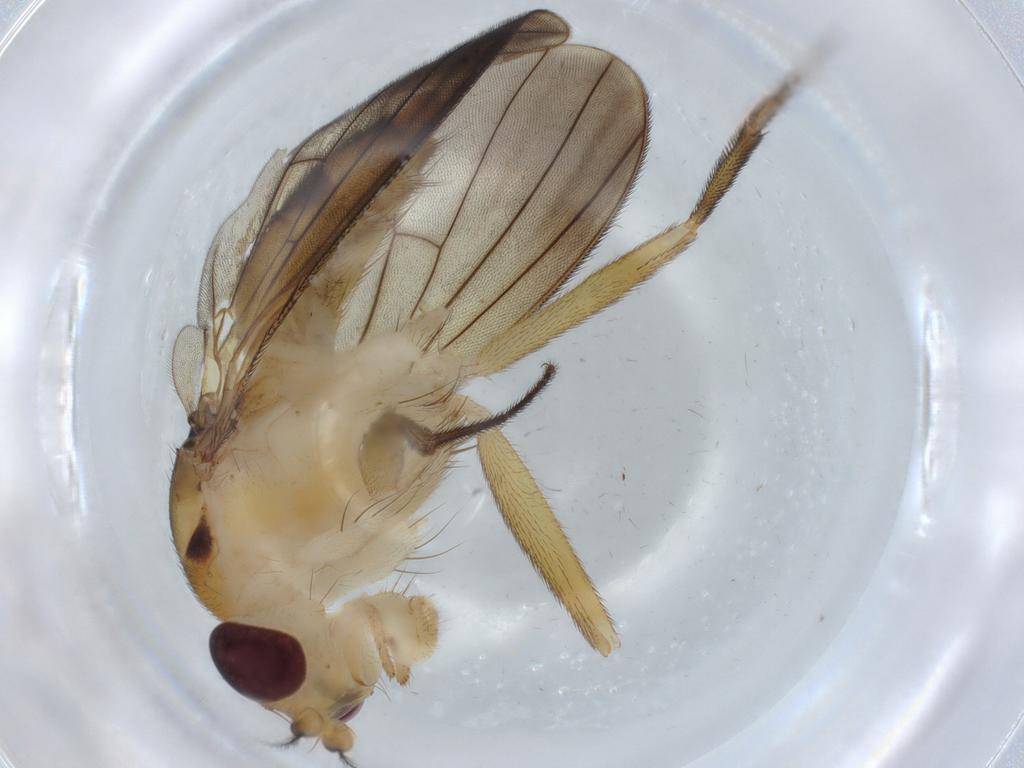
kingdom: Animalia
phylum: Arthropoda
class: Insecta
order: Diptera
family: Clusiidae
